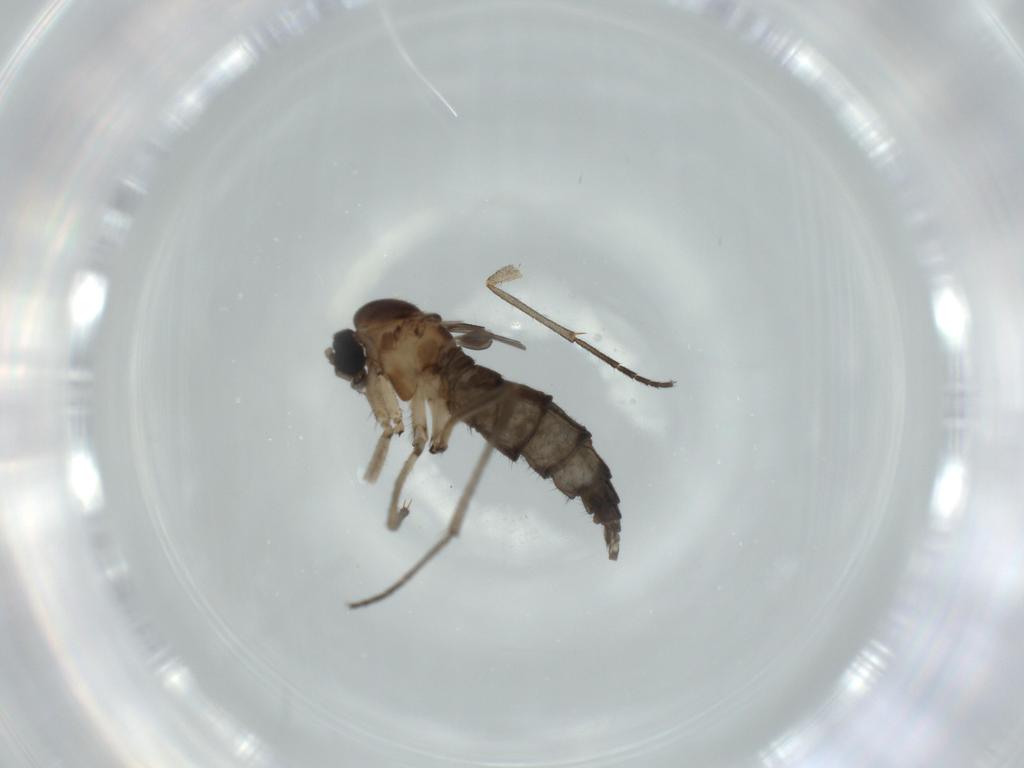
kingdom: Animalia
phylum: Arthropoda
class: Insecta
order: Diptera
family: Sciaridae
